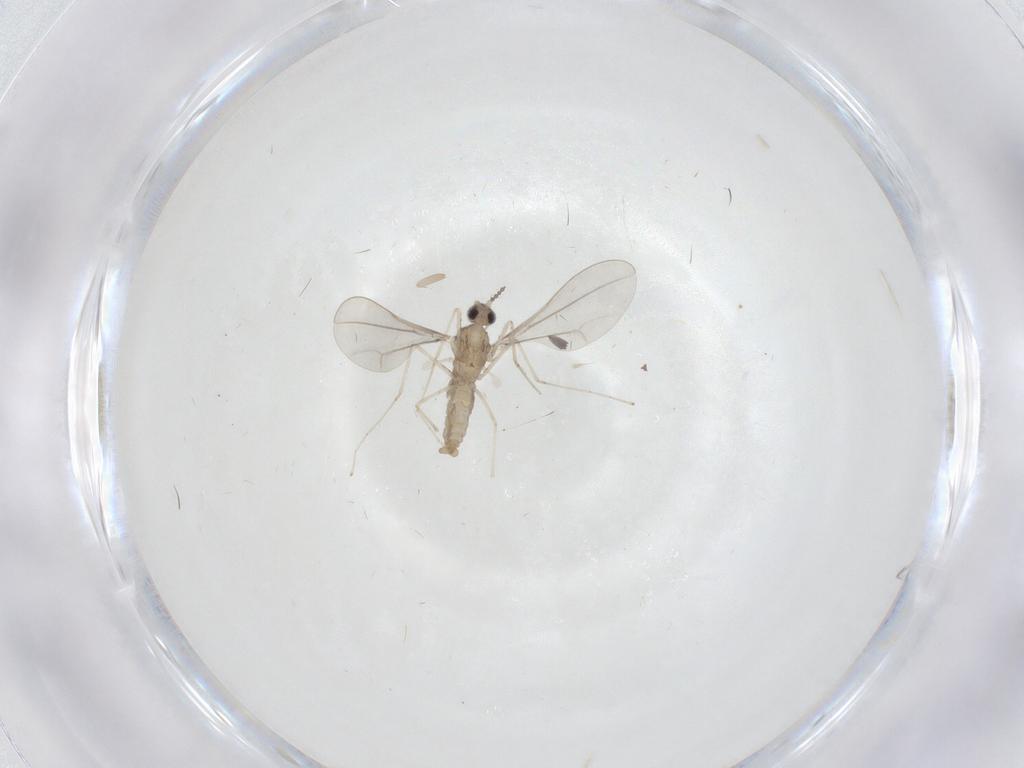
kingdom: Animalia
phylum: Arthropoda
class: Insecta
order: Diptera
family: Cecidomyiidae
